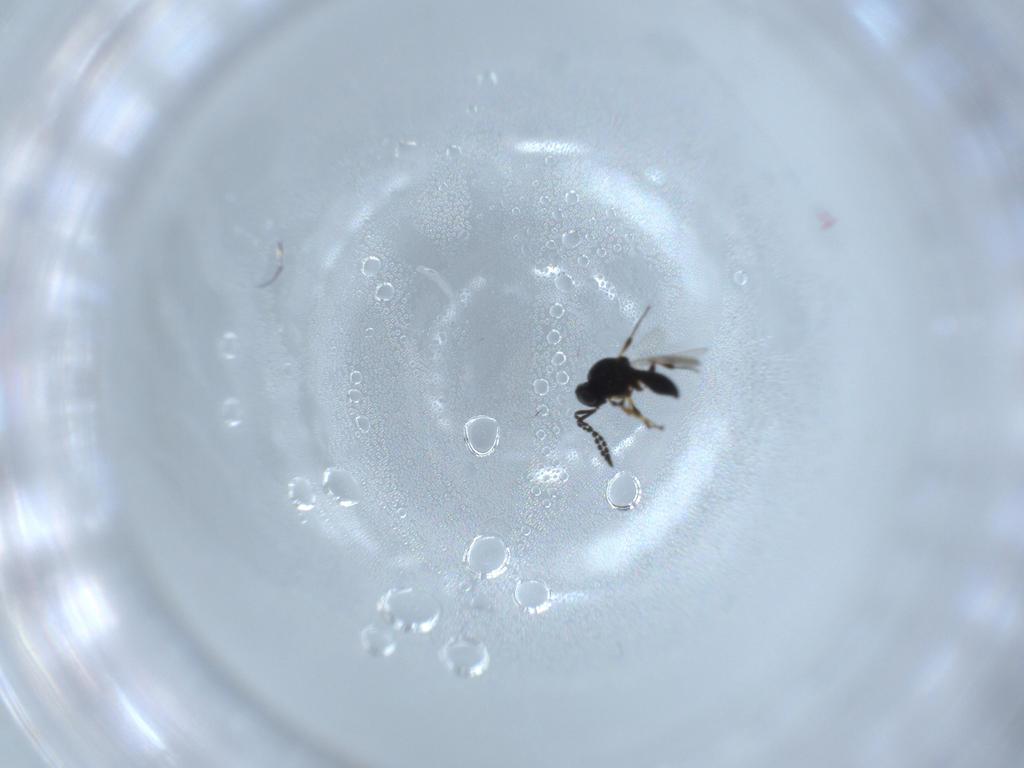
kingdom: Animalia
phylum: Arthropoda
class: Insecta
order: Hymenoptera
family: Platygastridae
